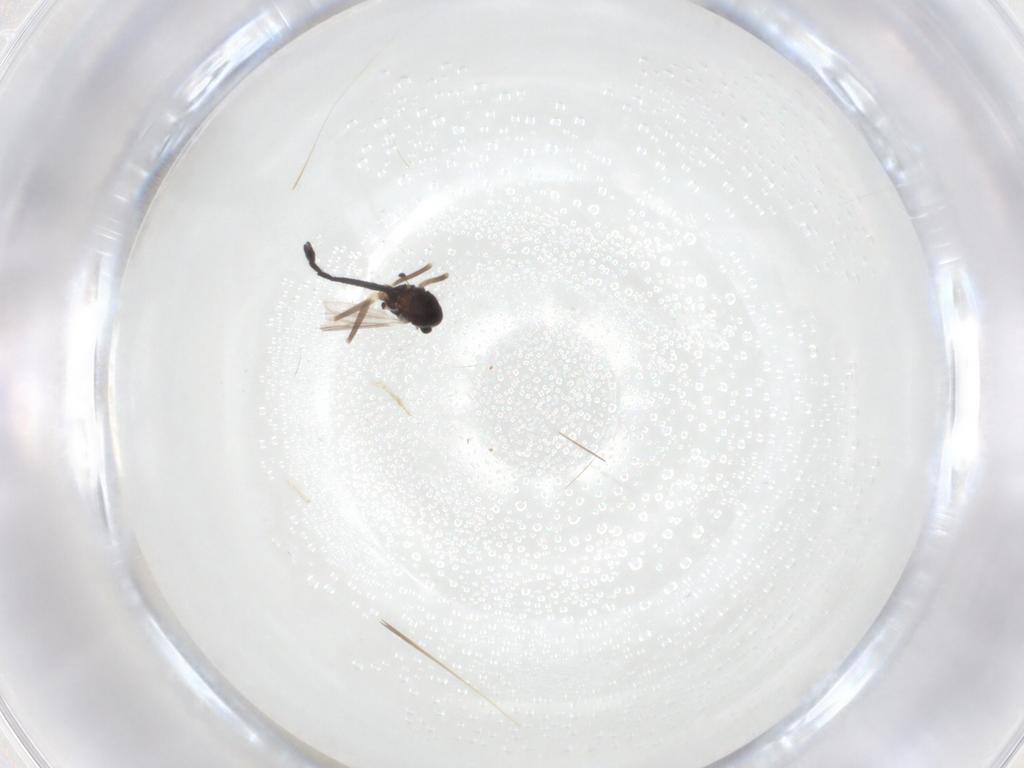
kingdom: Animalia
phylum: Arthropoda
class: Insecta
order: Diptera
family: Chironomidae
